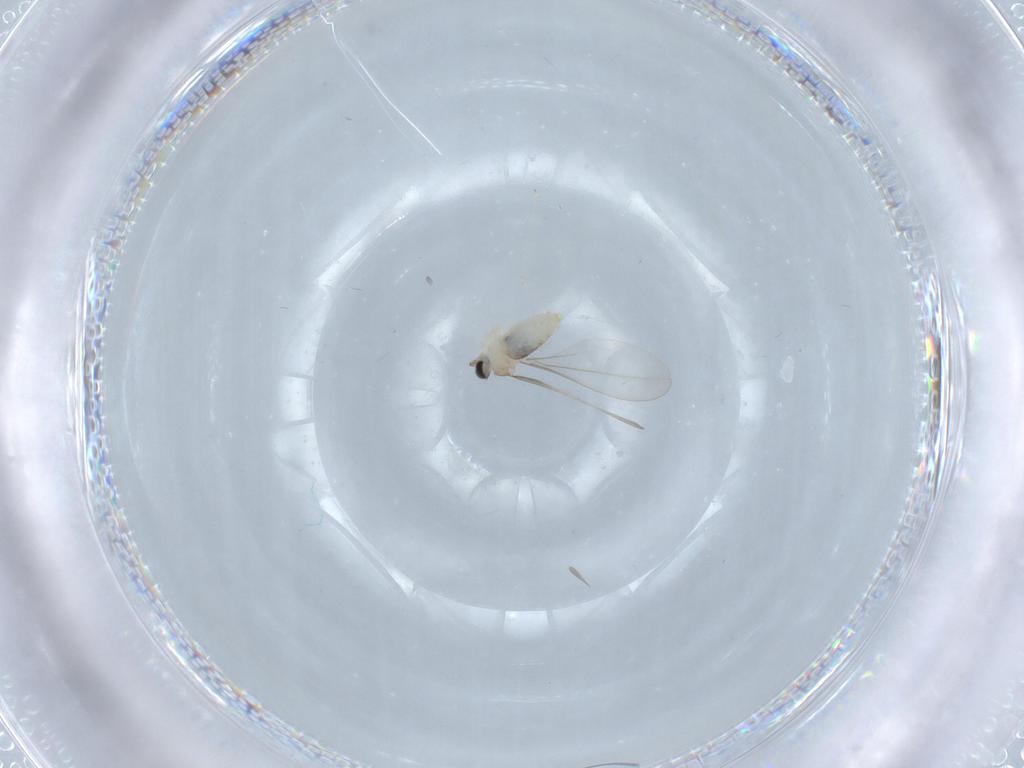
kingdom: Animalia
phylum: Arthropoda
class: Insecta
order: Diptera
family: Cecidomyiidae
